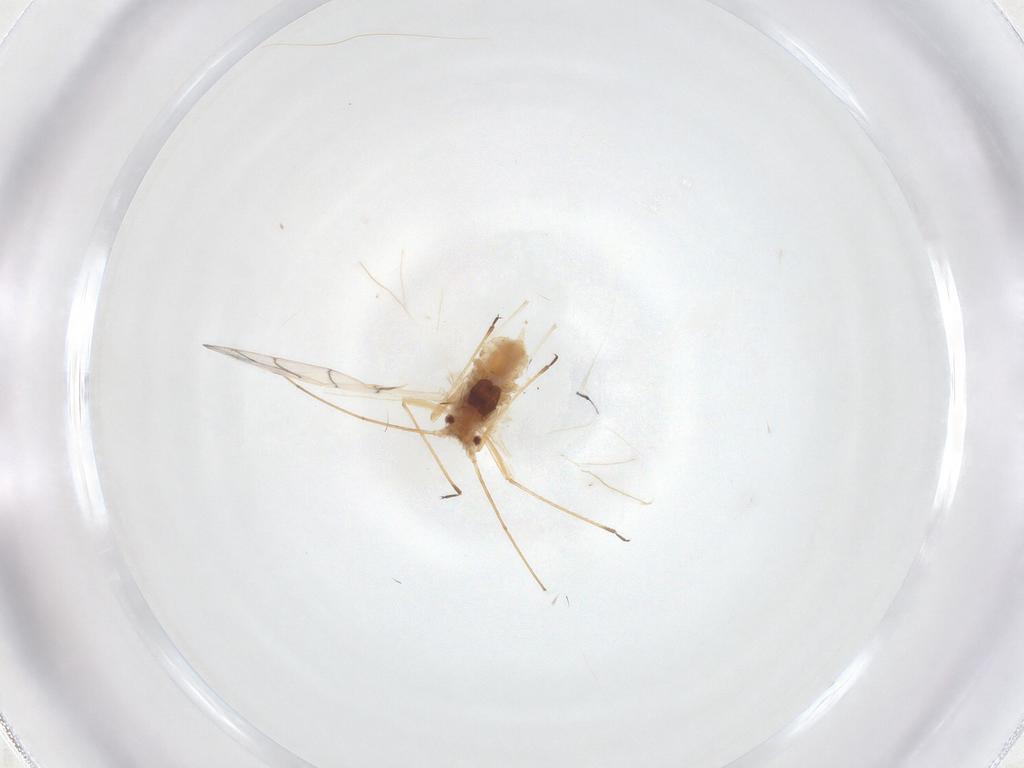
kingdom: Animalia
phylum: Arthropoda
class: Insecta
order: Hemiptera
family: Aphididae
